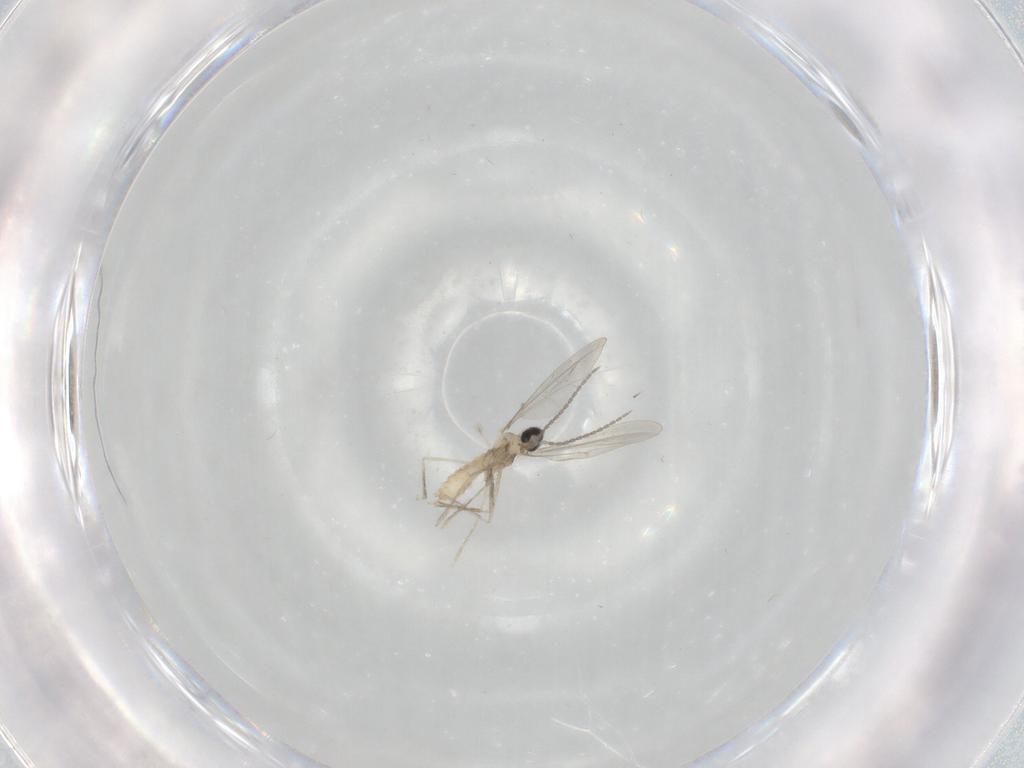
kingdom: Animalia
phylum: Arthropoda
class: Insecta
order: Diptera
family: Cecidomyiidae
